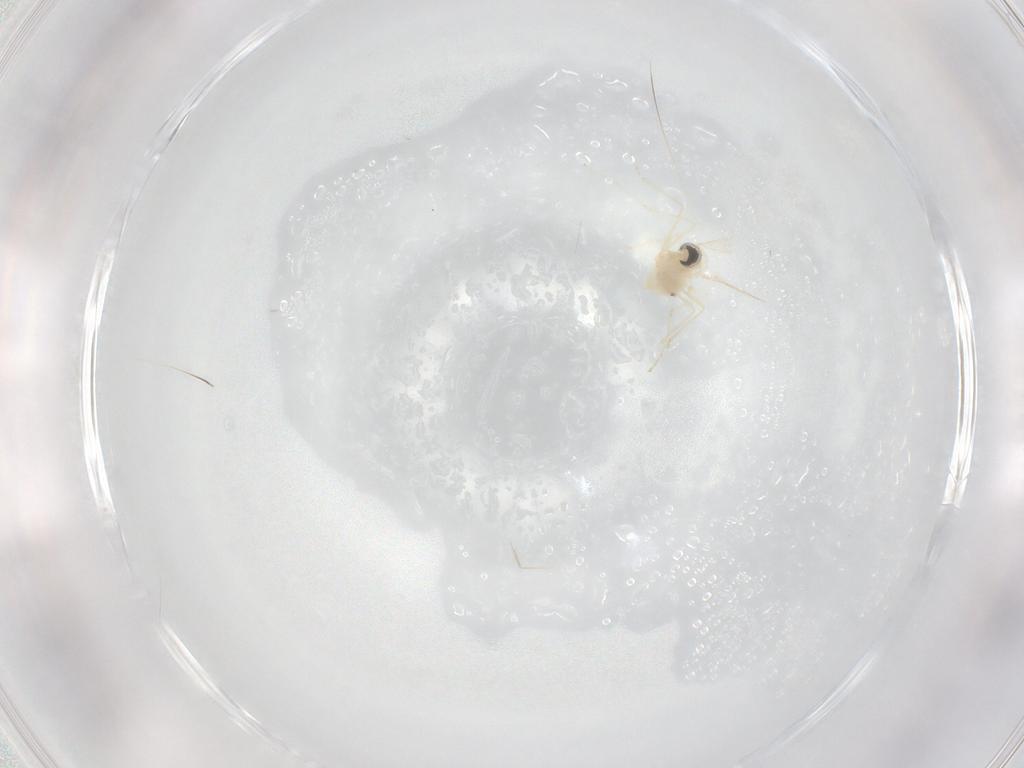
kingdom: Animalia
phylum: Arthropoda
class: Insecta
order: Diptera
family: Cecidomyiidae
